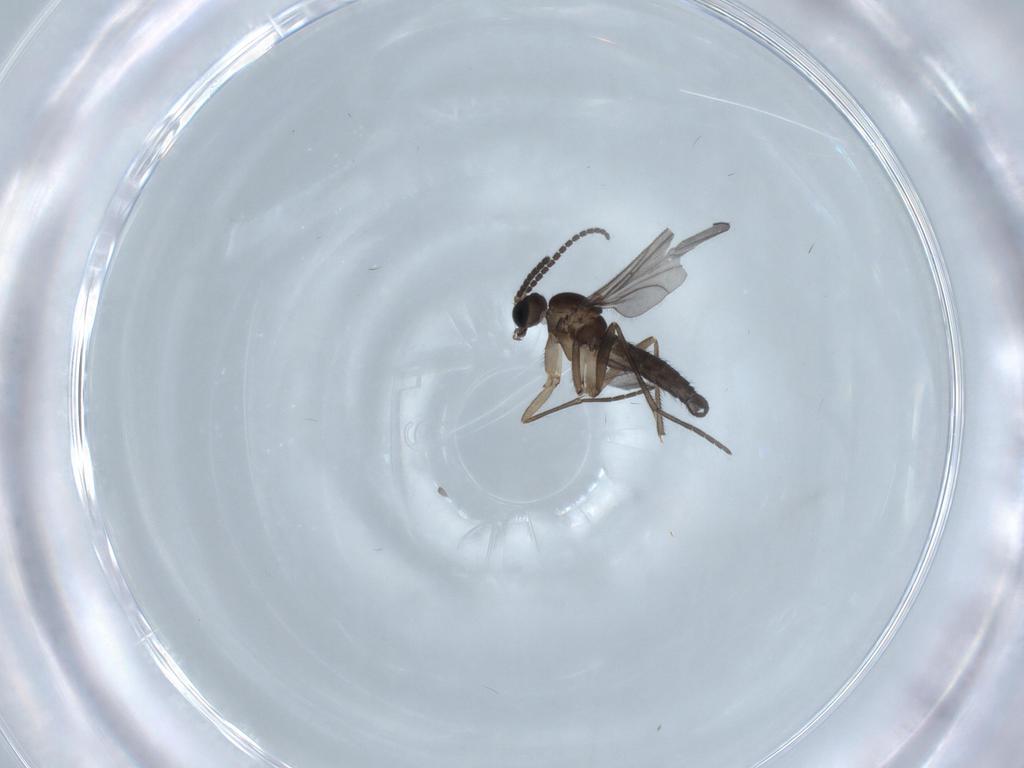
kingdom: Animalia
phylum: Arthropoda
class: Insecta
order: Diptera
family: Sciaridae
